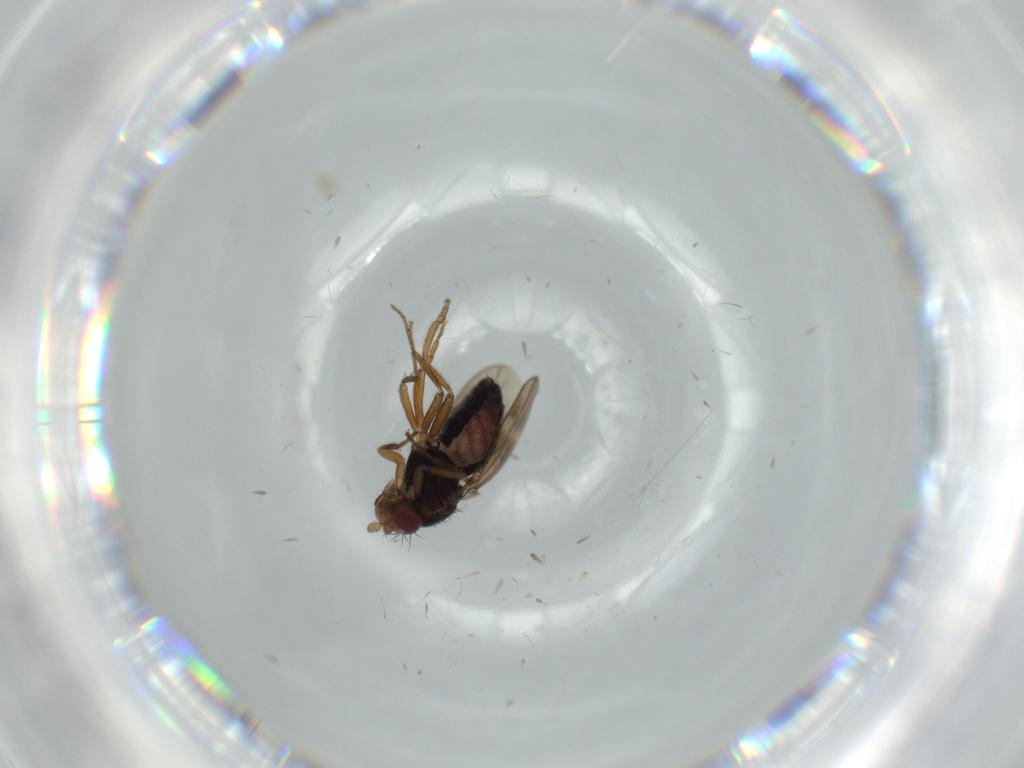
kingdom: Animalia
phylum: Arthropoda
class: Insecta
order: Diptera
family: Sphaeroceridae
